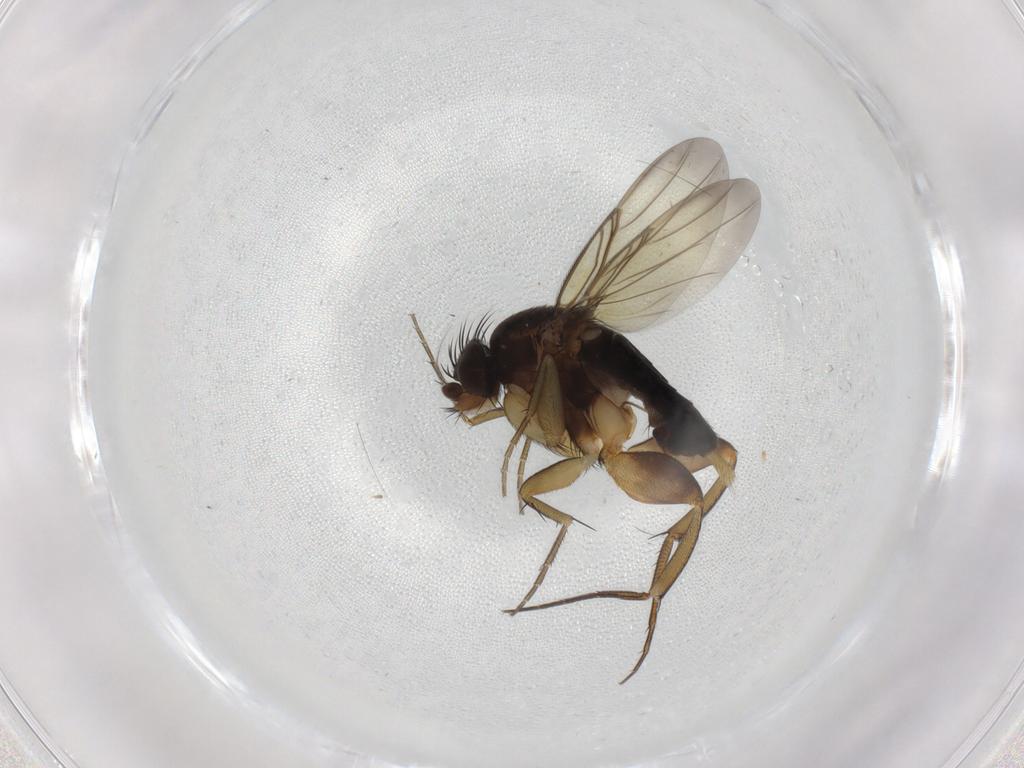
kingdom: Animalia
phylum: Arthropoda
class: Insecta
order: Diptera
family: Phoridae
